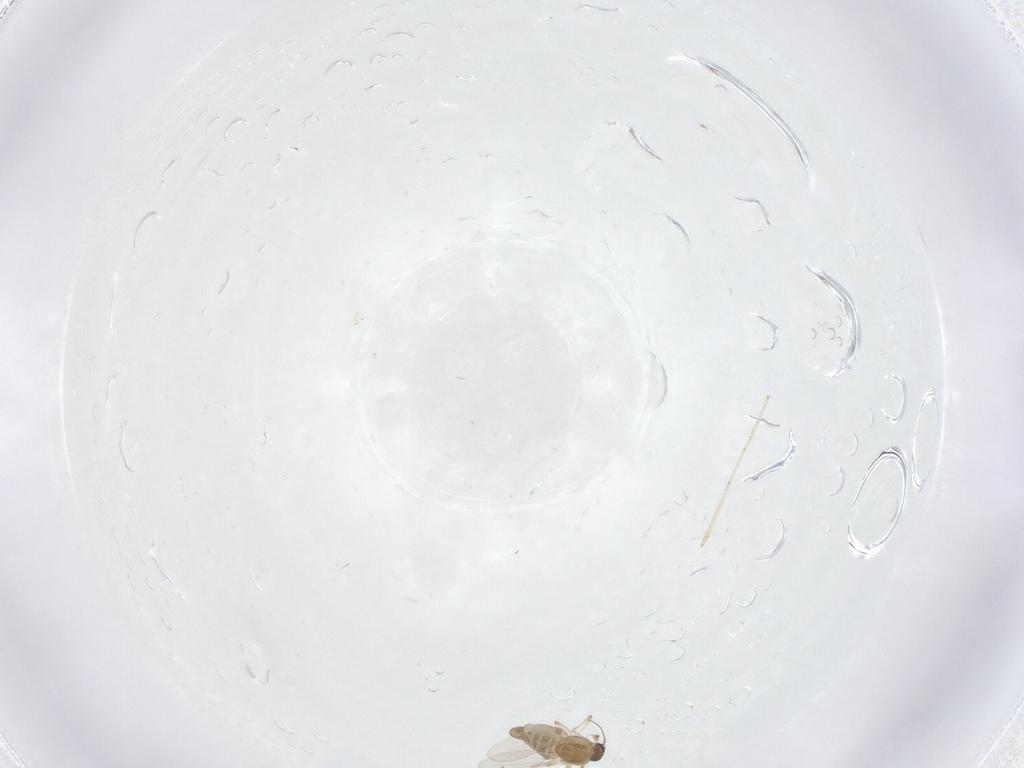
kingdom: Animalia
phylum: Arthropoda
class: Insecta
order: Diptera
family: Ceratopogonidae
